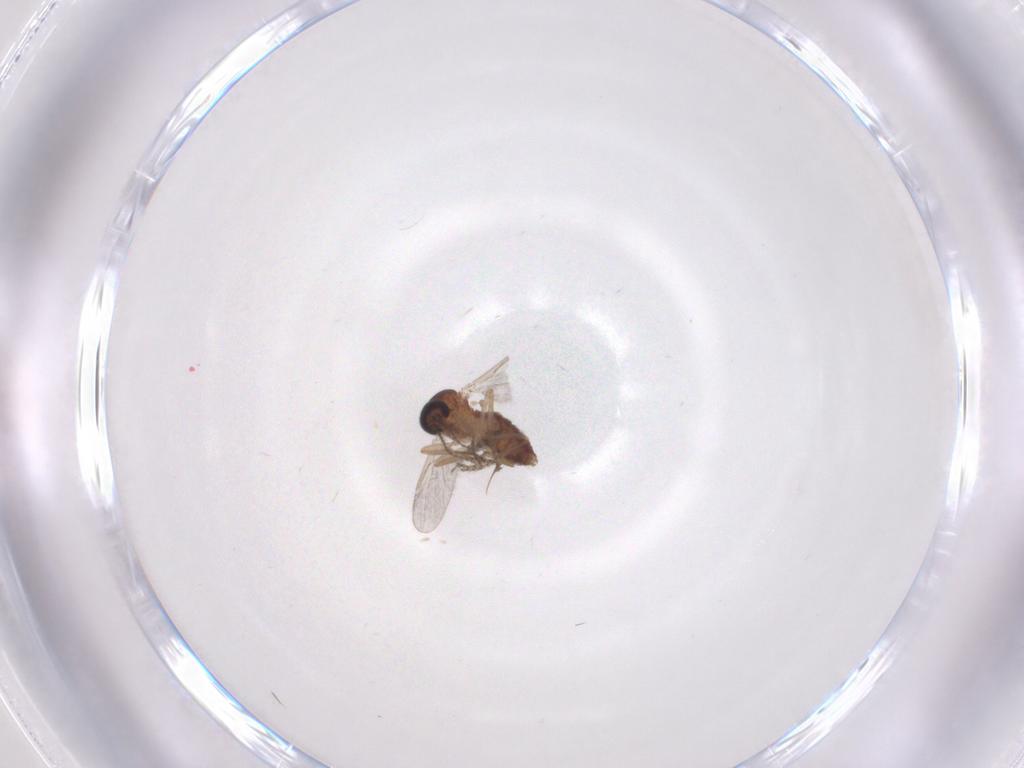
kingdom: Animalia
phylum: Arthropoda
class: Insecta
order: Diptera
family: Ceratopogonidae
